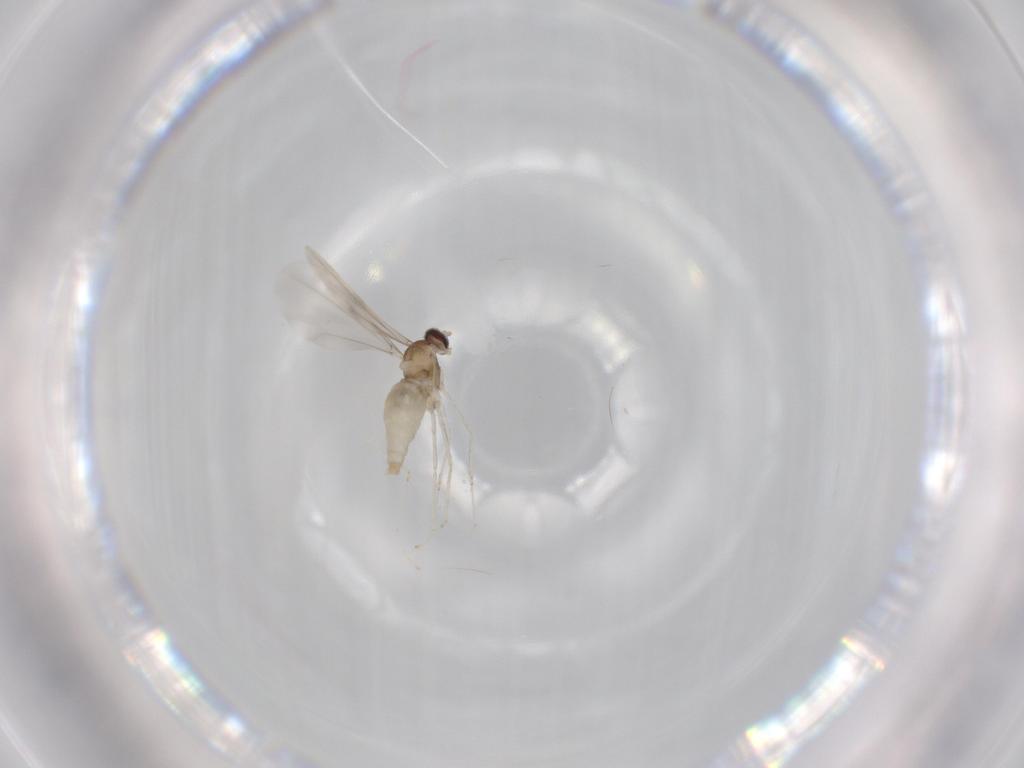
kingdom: Animalia
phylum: Arthropoda
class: Insecta
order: Diptera
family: Cecidomyiidae
